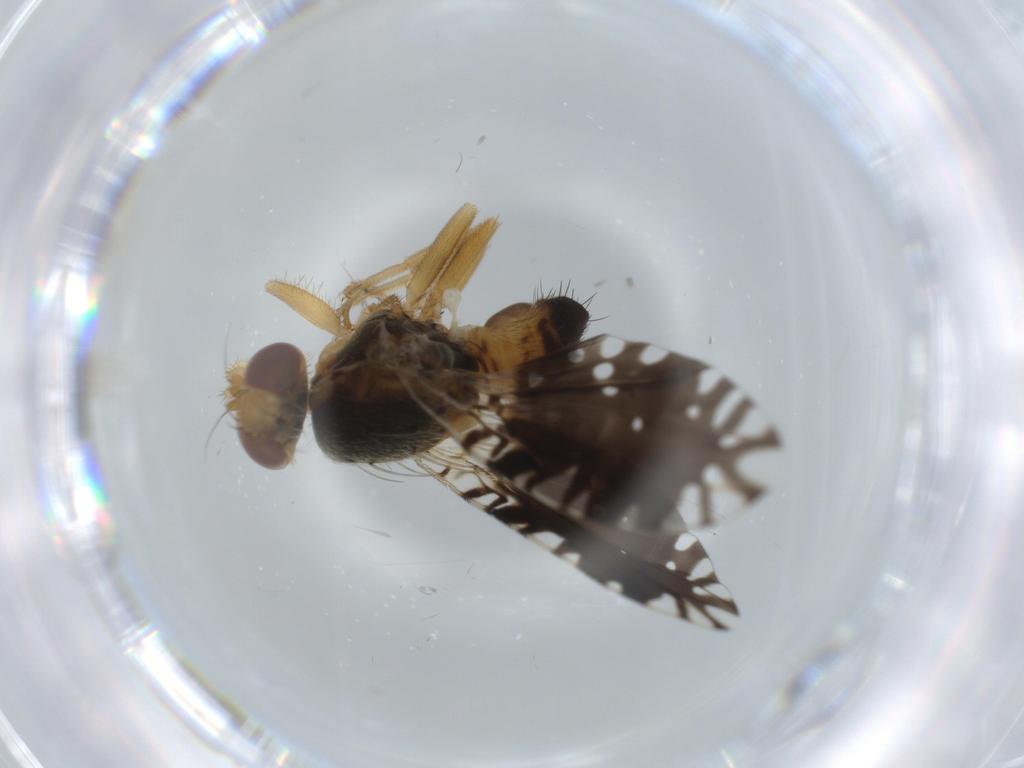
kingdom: Animalia
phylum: Arthropoda
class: Insecta
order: Diptera
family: Tephritidae
